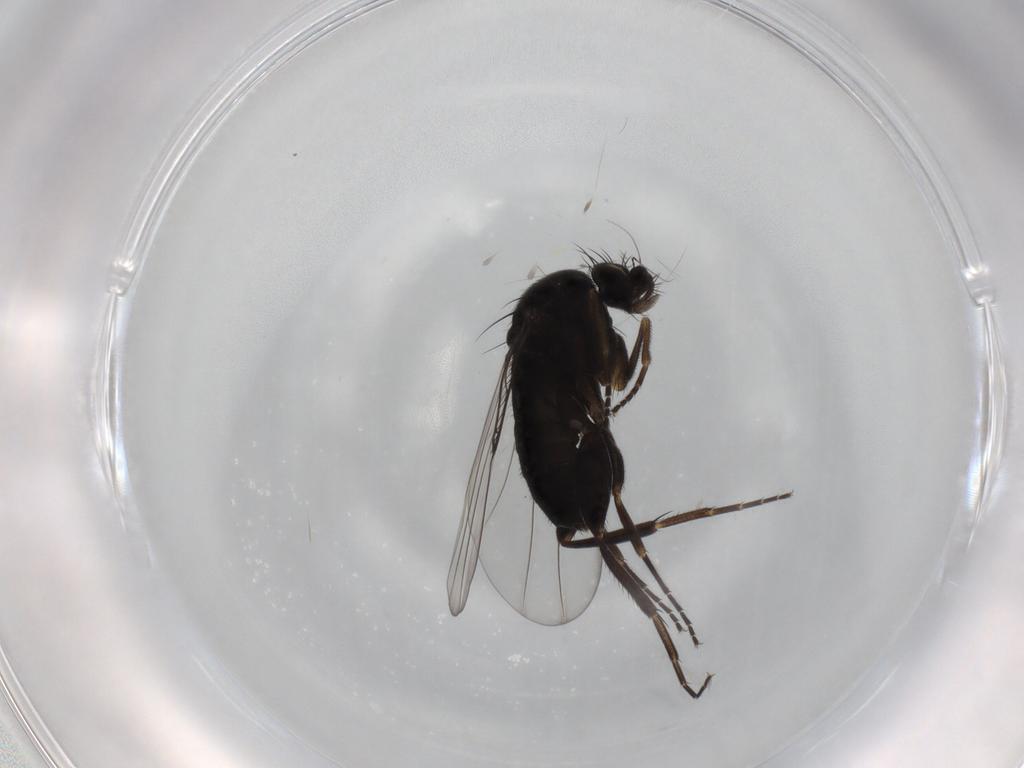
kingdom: Animalia
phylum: Arthropoda
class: Insecta
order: Diptera
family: Phoridae
